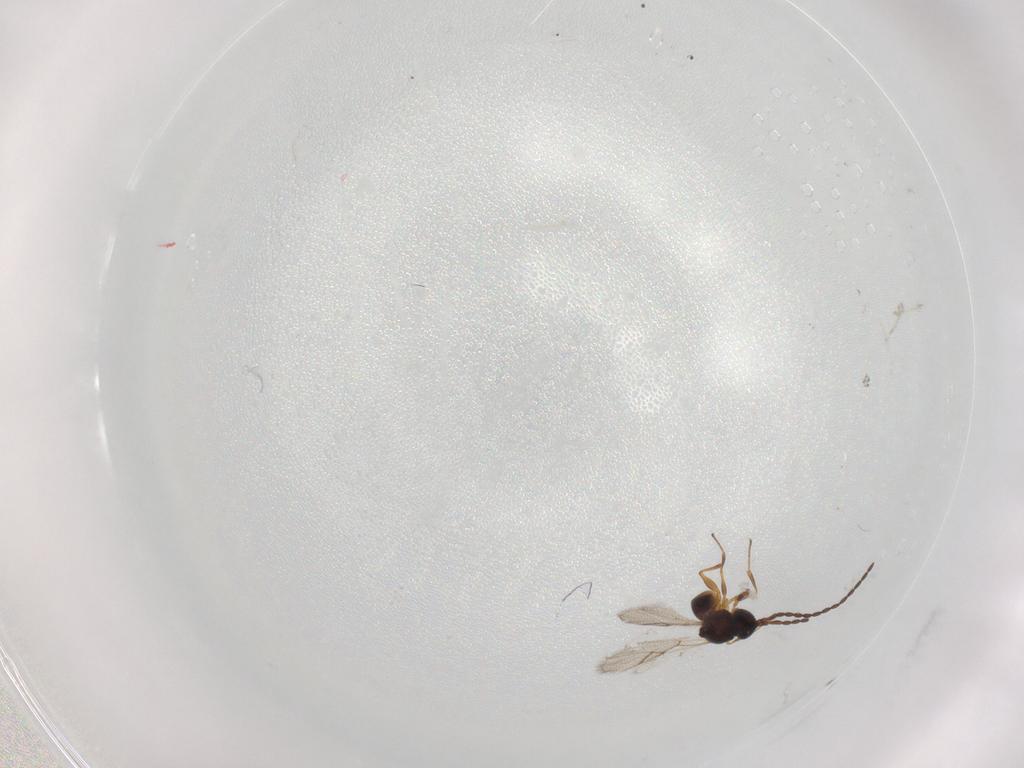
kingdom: Animalia
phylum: Arthropoda
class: Insecta
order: Hymenoptera
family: Figitidae
